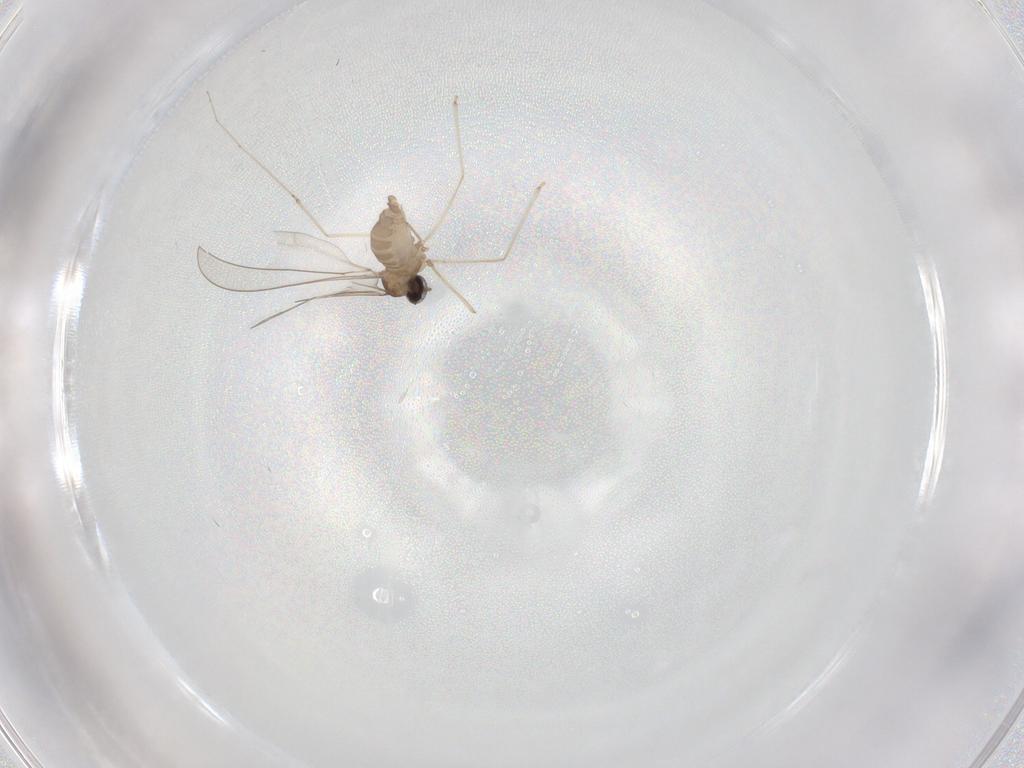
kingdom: Animalia
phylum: Arthropoda
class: Insecta
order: Diptera
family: Cecidomyiidae
